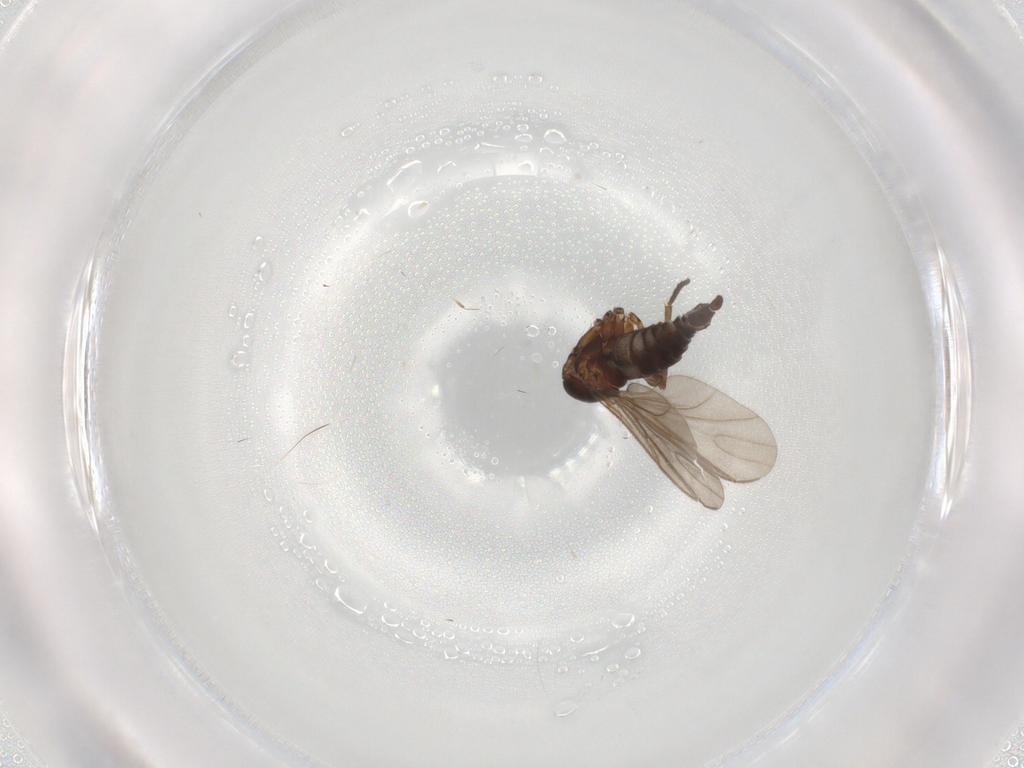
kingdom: Animalia
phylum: Arthropoda
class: Insecta
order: Diptera
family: Sciaridae
